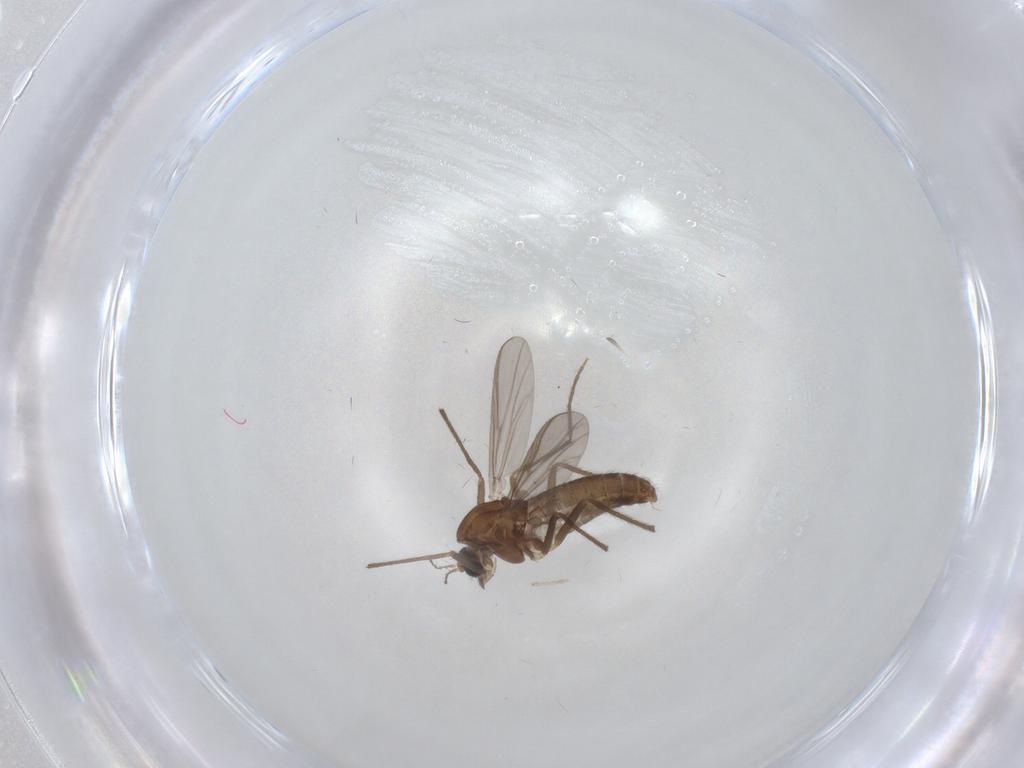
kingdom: Animalia
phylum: Arthropoda
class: Insecta
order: Diptera
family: Chironomidae
